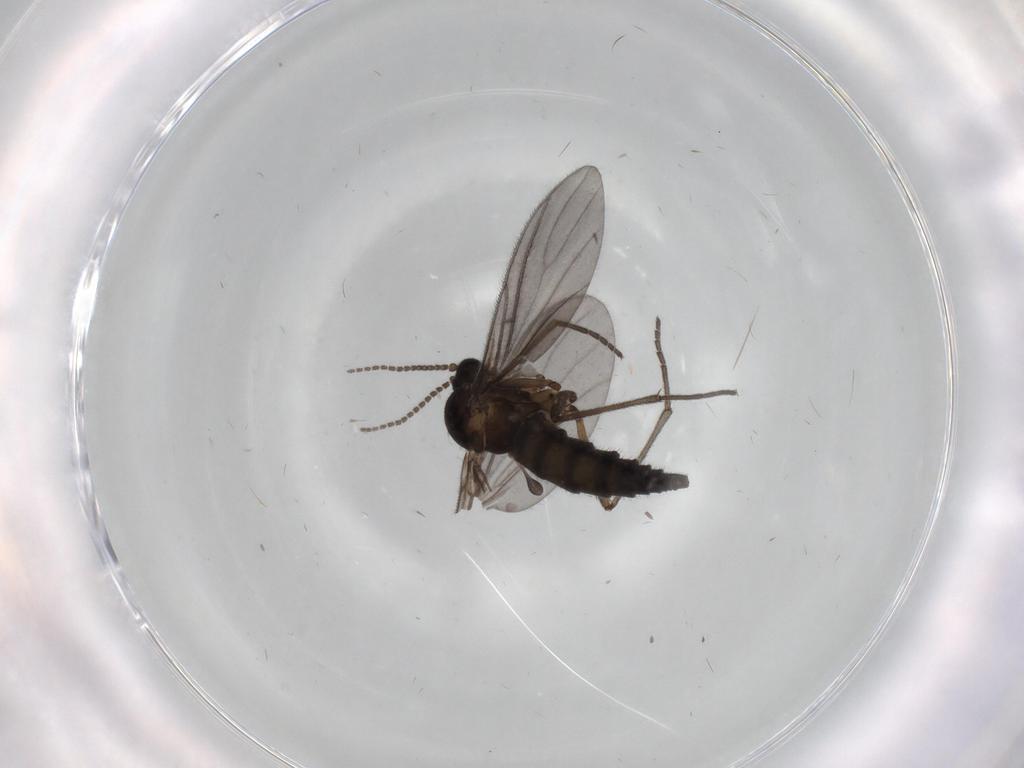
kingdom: Animalia
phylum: Arthropoda
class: Insecta
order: Diptera
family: Sciaridae
